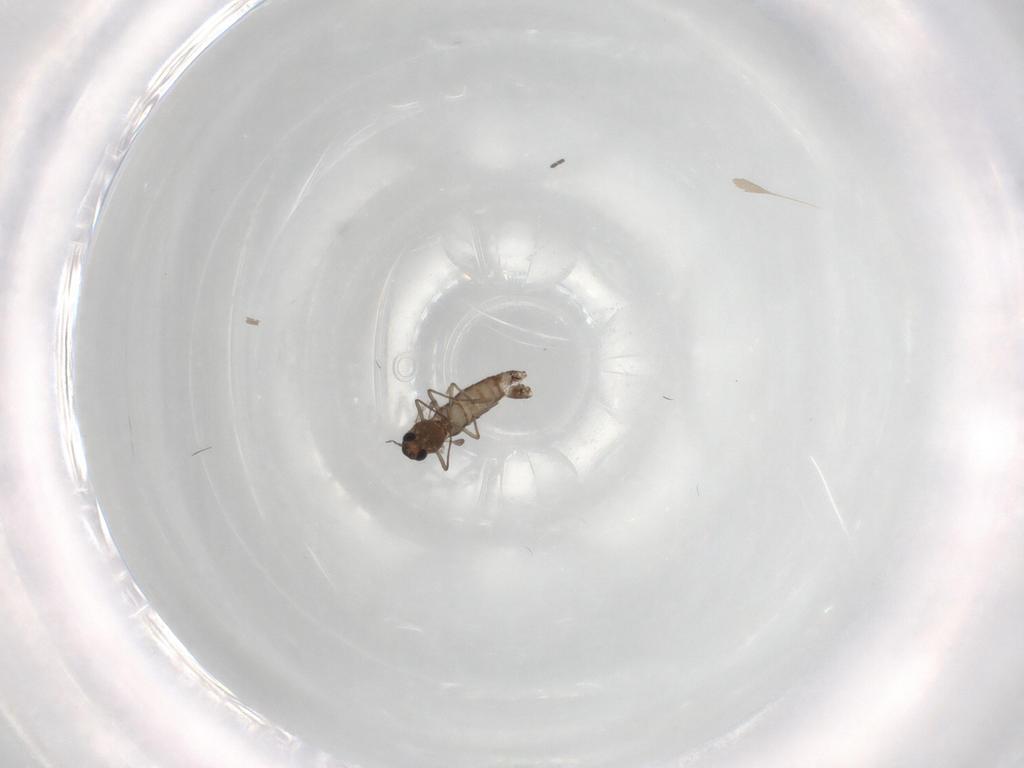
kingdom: Animalia
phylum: Arthropoda
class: Insecta
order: Diptera
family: Chironomidae
